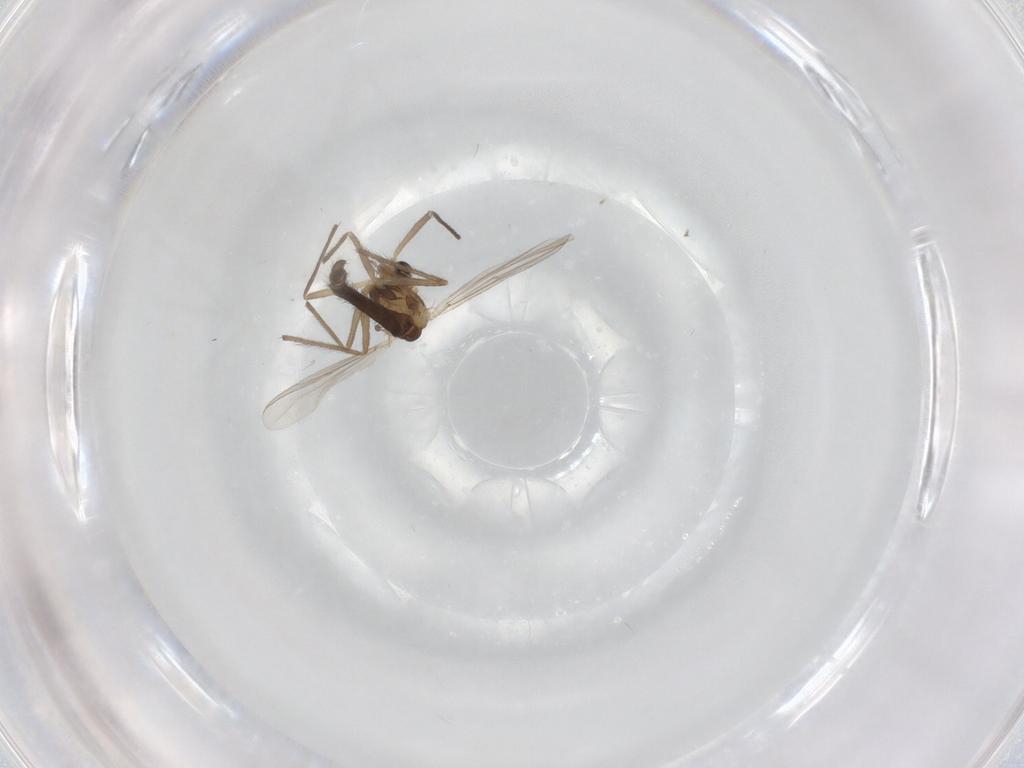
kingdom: Animalia
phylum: Arthropoda
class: Insecta
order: Diptera
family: Chironomidae
